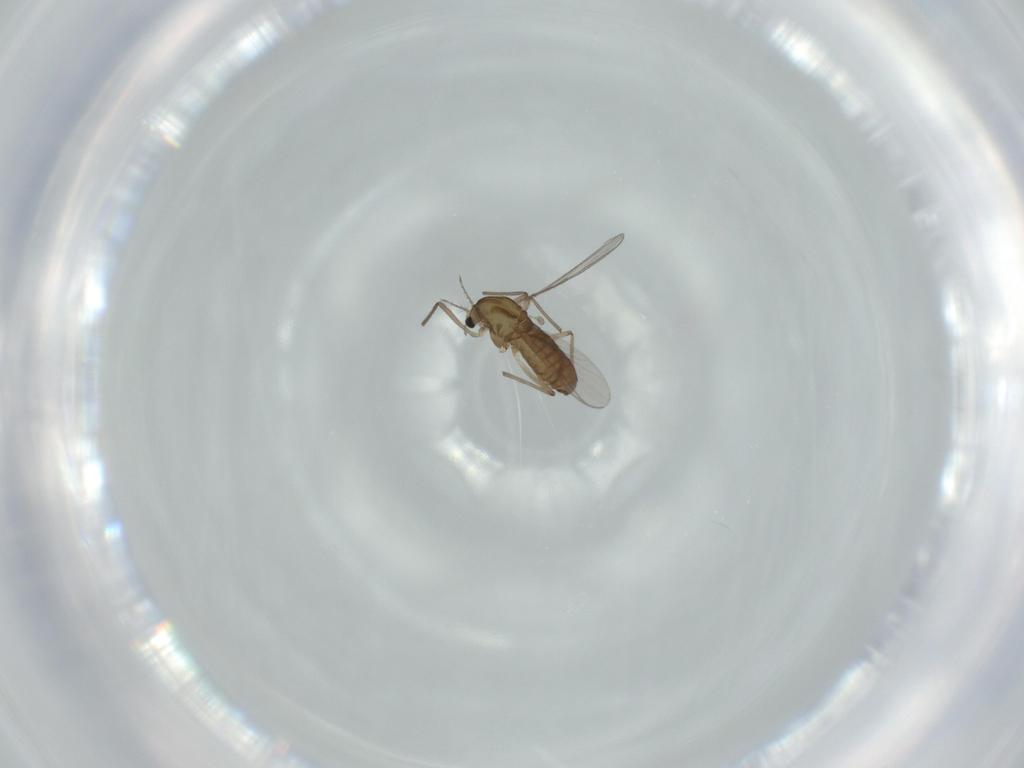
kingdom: Animalia
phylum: Arthropoda
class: Insecta
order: Diptera
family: Chironomidae
